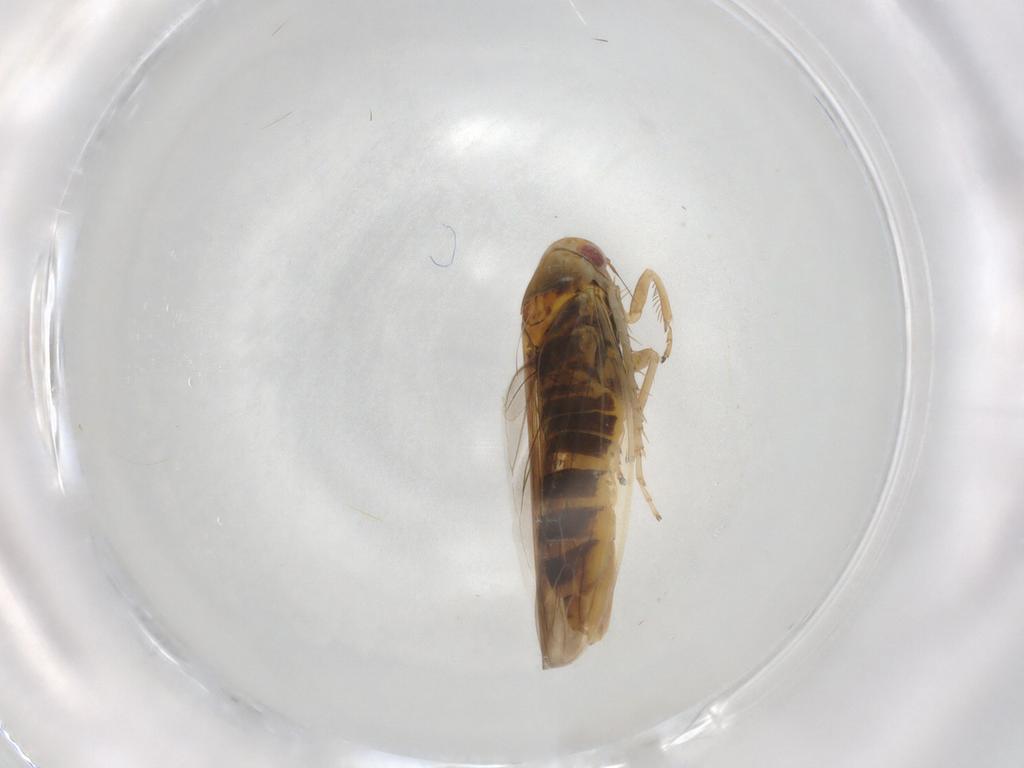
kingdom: Animalia
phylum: Arthropoda
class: Insecta
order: Hemiptera
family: Cicadellidae
